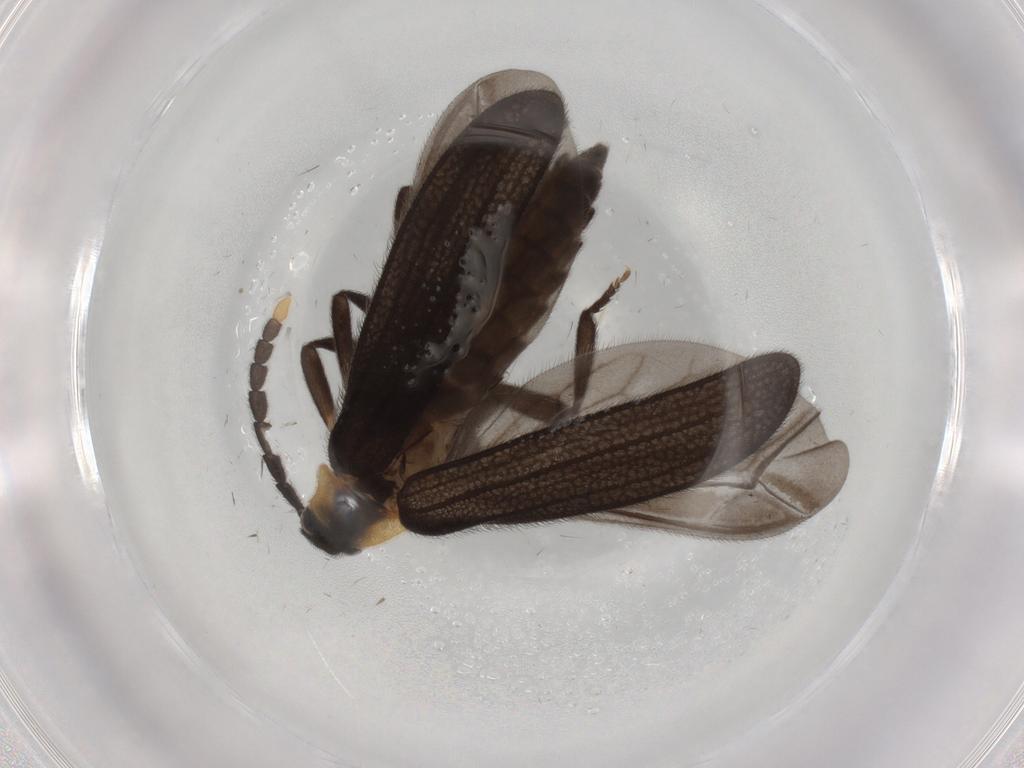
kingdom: Animalia
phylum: Arthropoda
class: Insecta
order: Coleoptera
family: Lycidae
